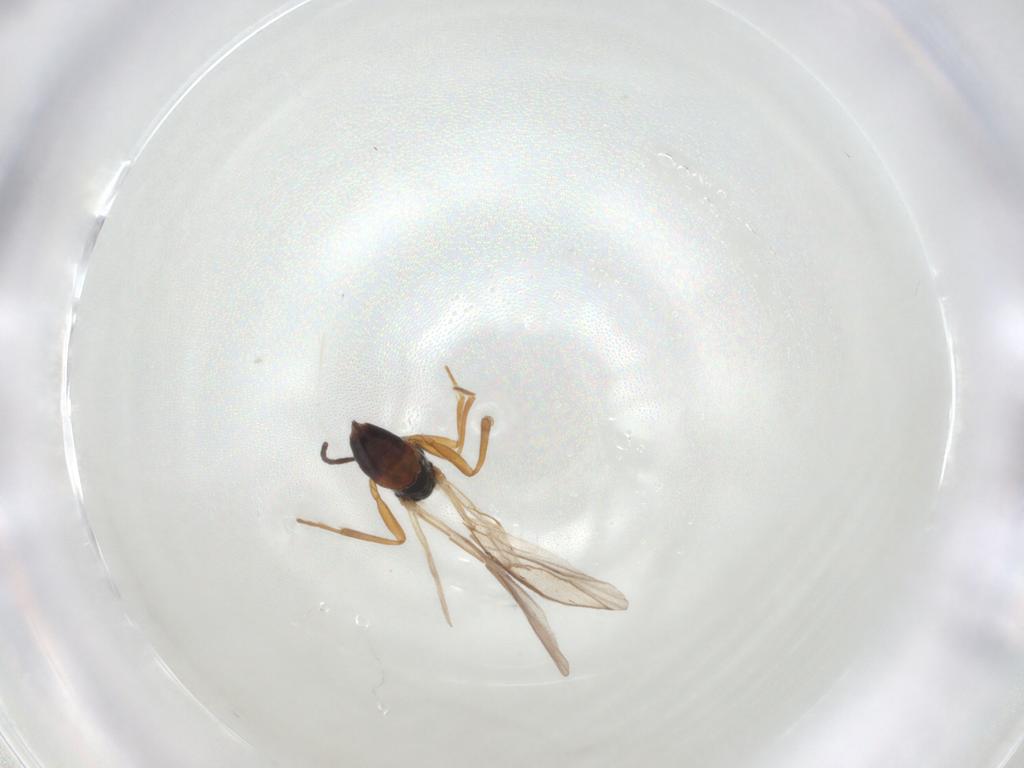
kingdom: Animalia
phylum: Arthropoda
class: Insecta
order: Hymenoptera
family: Braconidae
